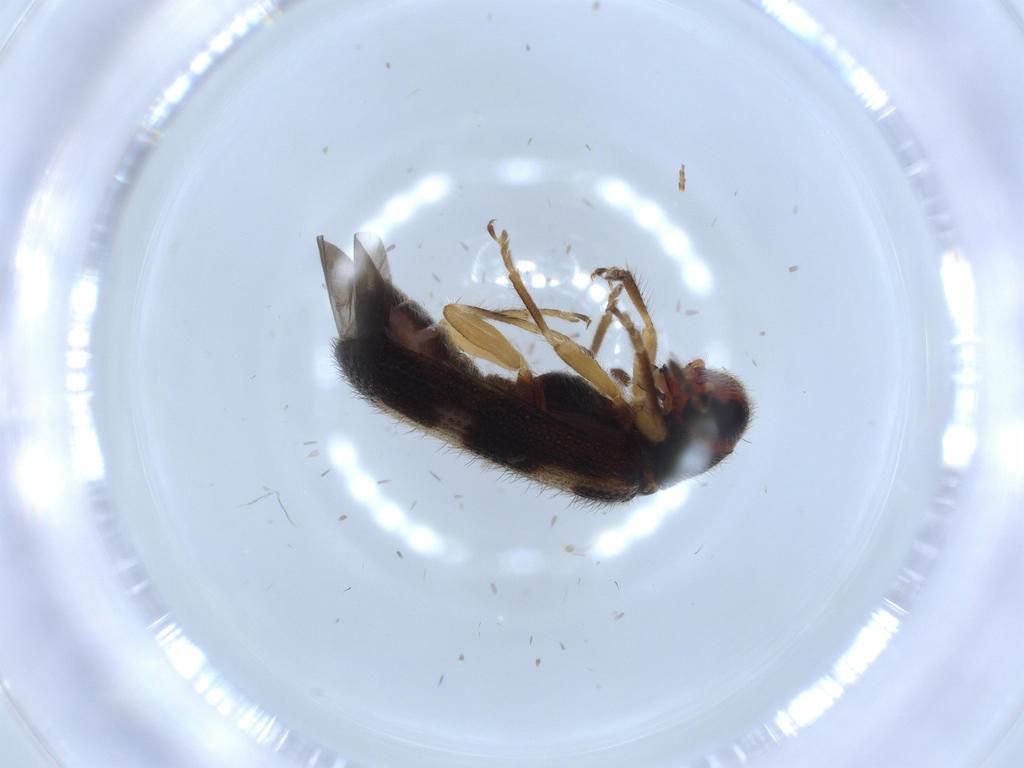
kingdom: Animalia
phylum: Arthropoda
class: Insecta
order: Coleoptera
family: Cleridae
